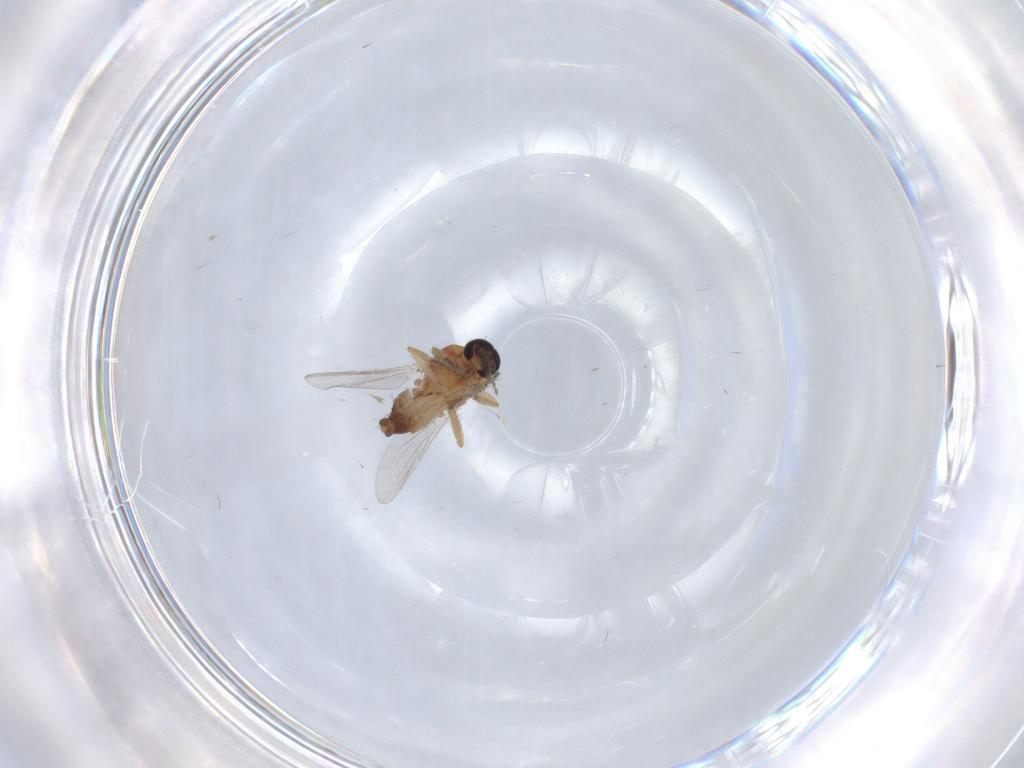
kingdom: Animalia
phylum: Arthropoda
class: Insecta
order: Diptera
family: Ceratopogonidae
